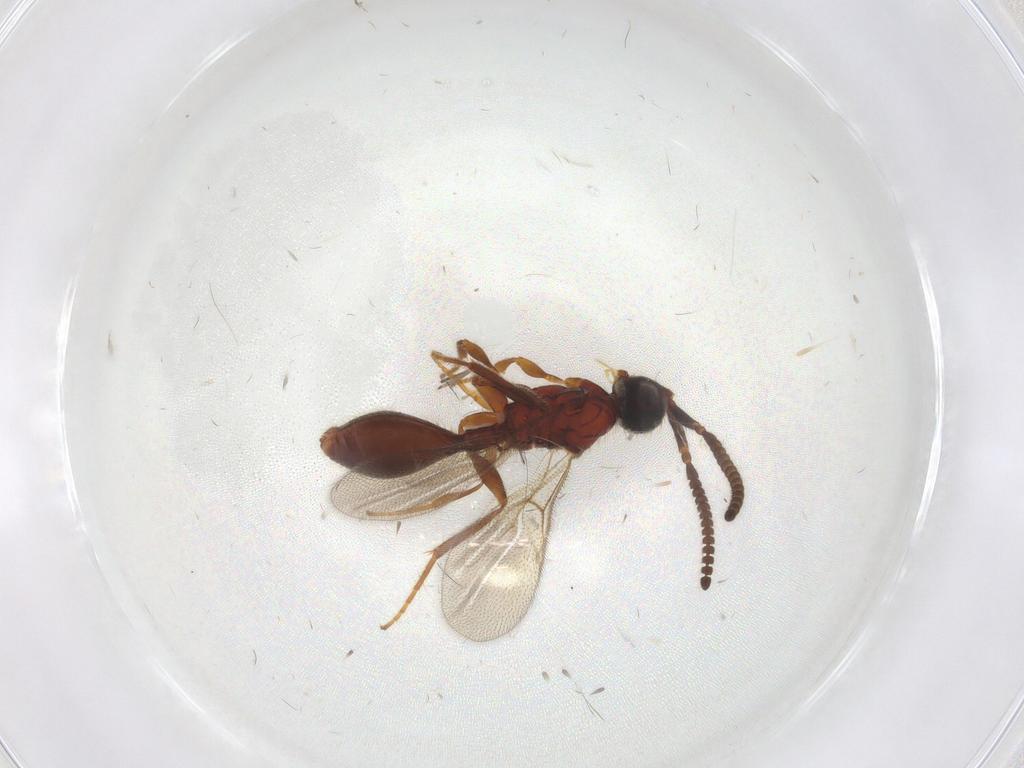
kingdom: Animalia
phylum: Arthropoda
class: Insecta
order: Hymenoptera
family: Diapriidae
